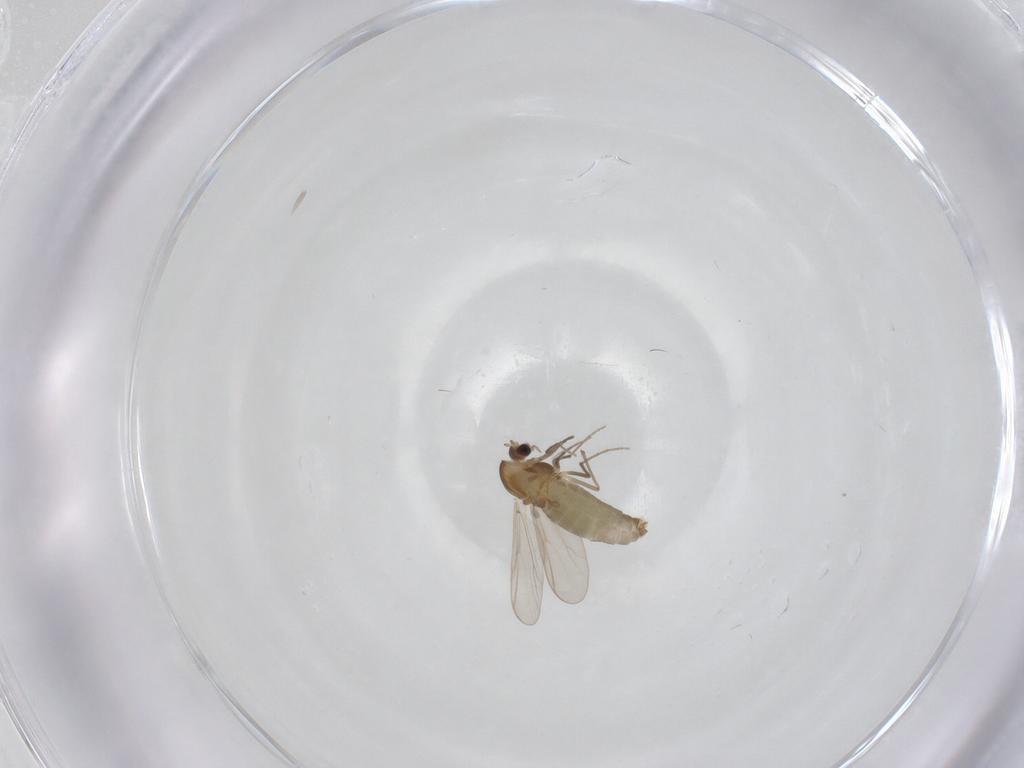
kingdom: Animalia
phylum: Arthropoda
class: Insecta
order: Diptera
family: Chironomidae
